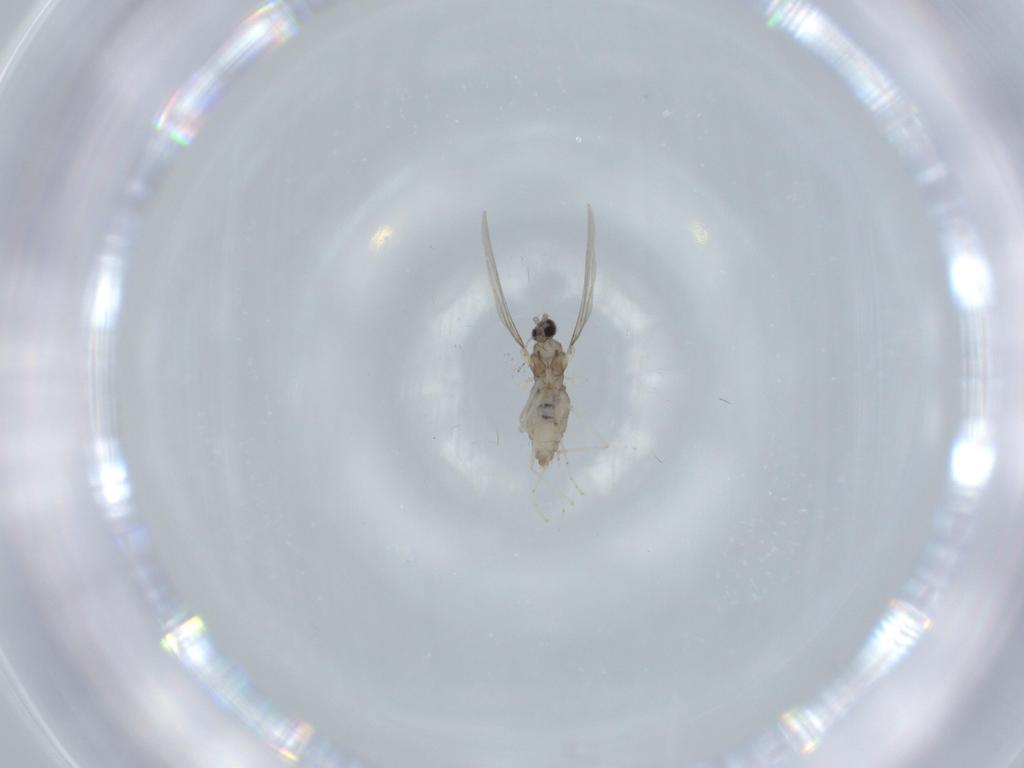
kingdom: Animalia
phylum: Arthropoda
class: Insecta
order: Diptera
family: Cecidomyiidae
